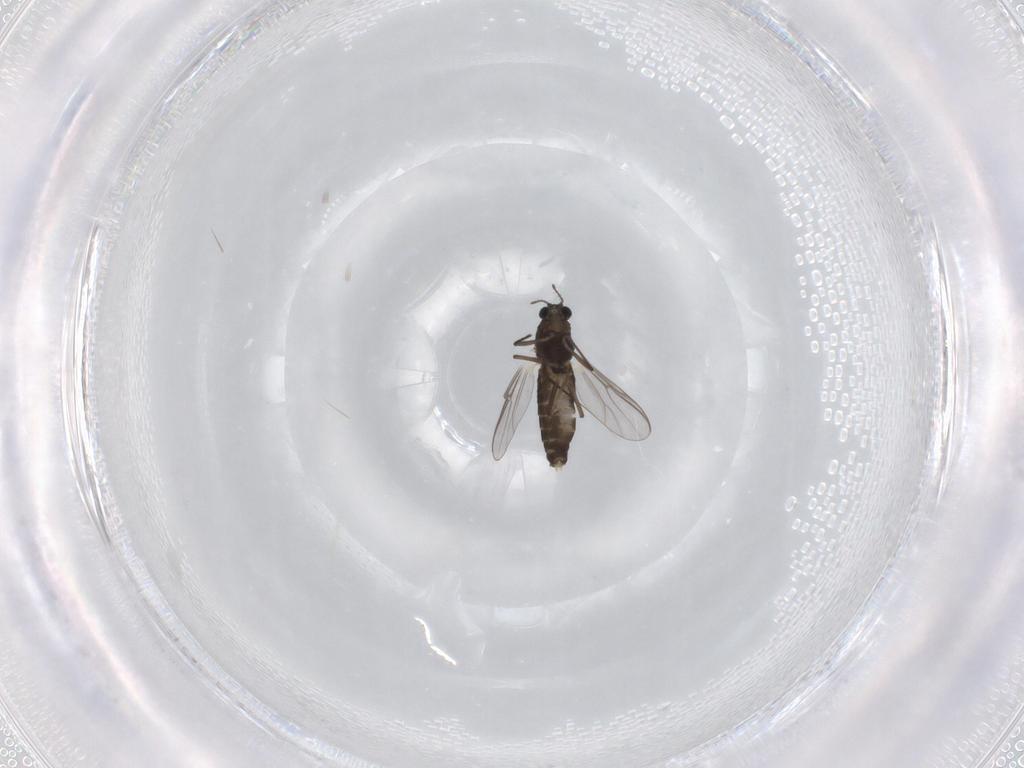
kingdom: Animalia
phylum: Arthropoda
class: Insecta
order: Diptera
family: Chironomidae
